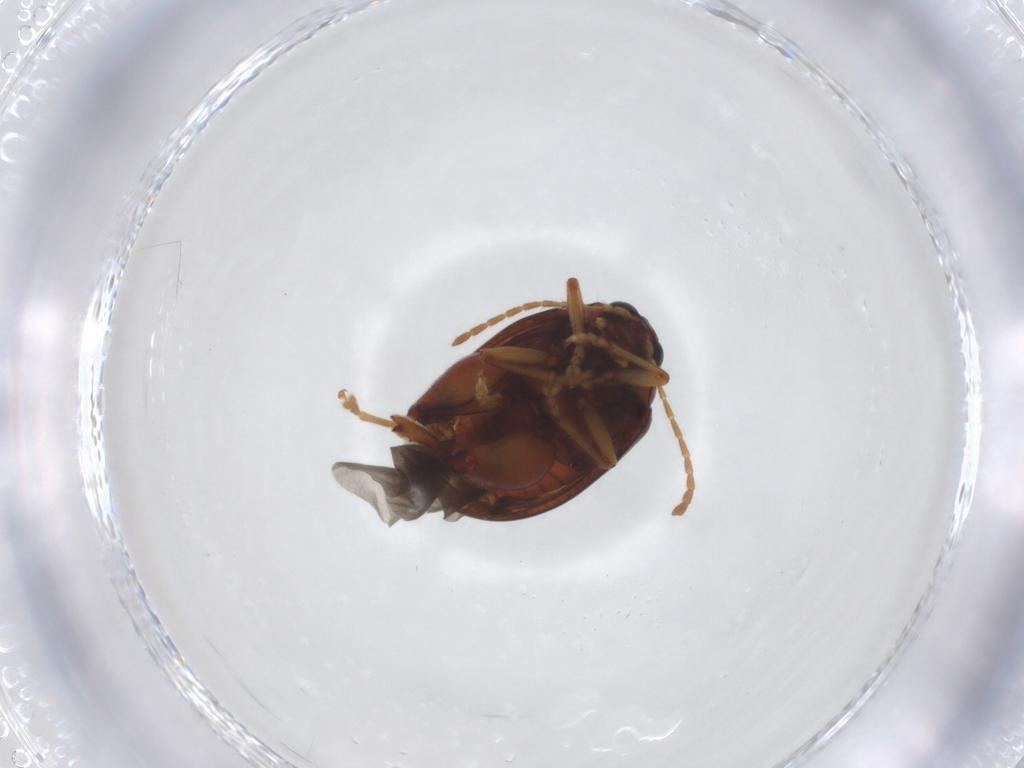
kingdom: Animalia
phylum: Arthropoda
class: Insecta
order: Coleoptera
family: Chrysomelidae
